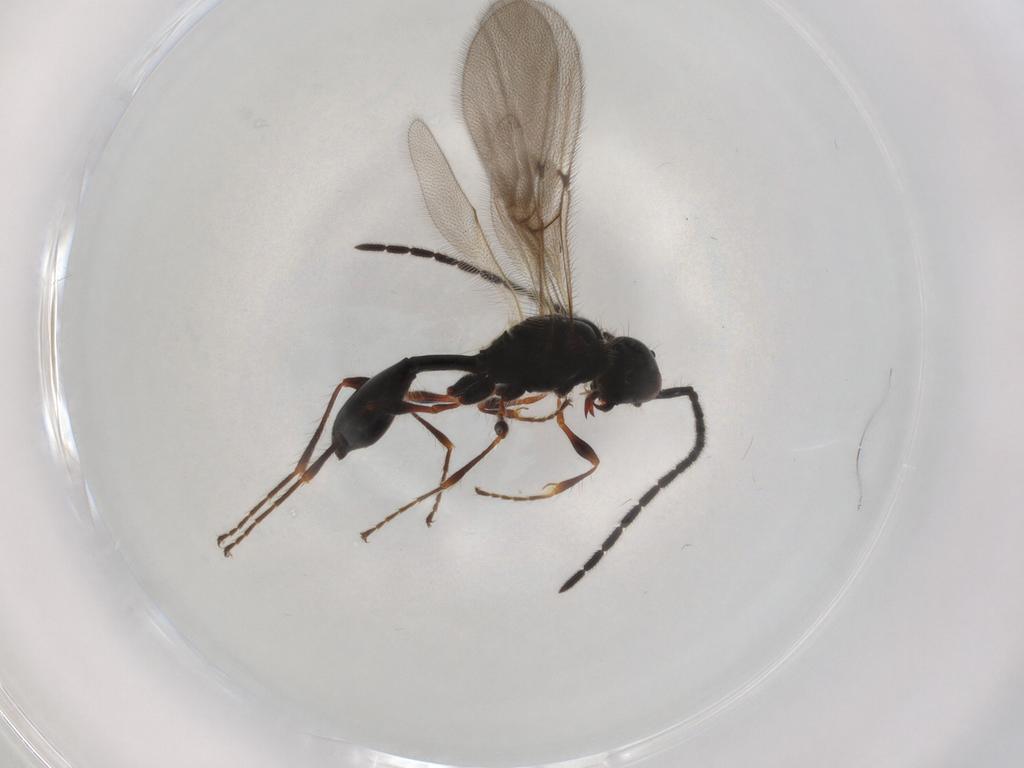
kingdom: Animalia
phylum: Arthropoda
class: Insecta
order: Hymenoptera
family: Diapriidae
